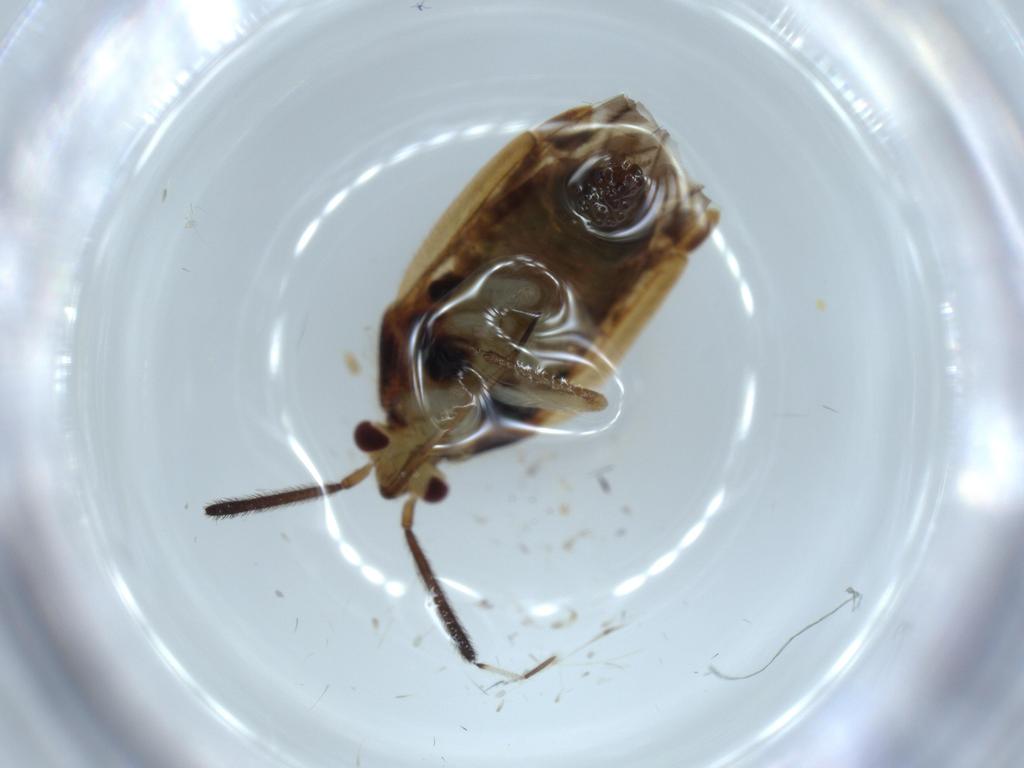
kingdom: Animalia
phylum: Arthropoda
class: Insecta
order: Hemiptera
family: Miridae
